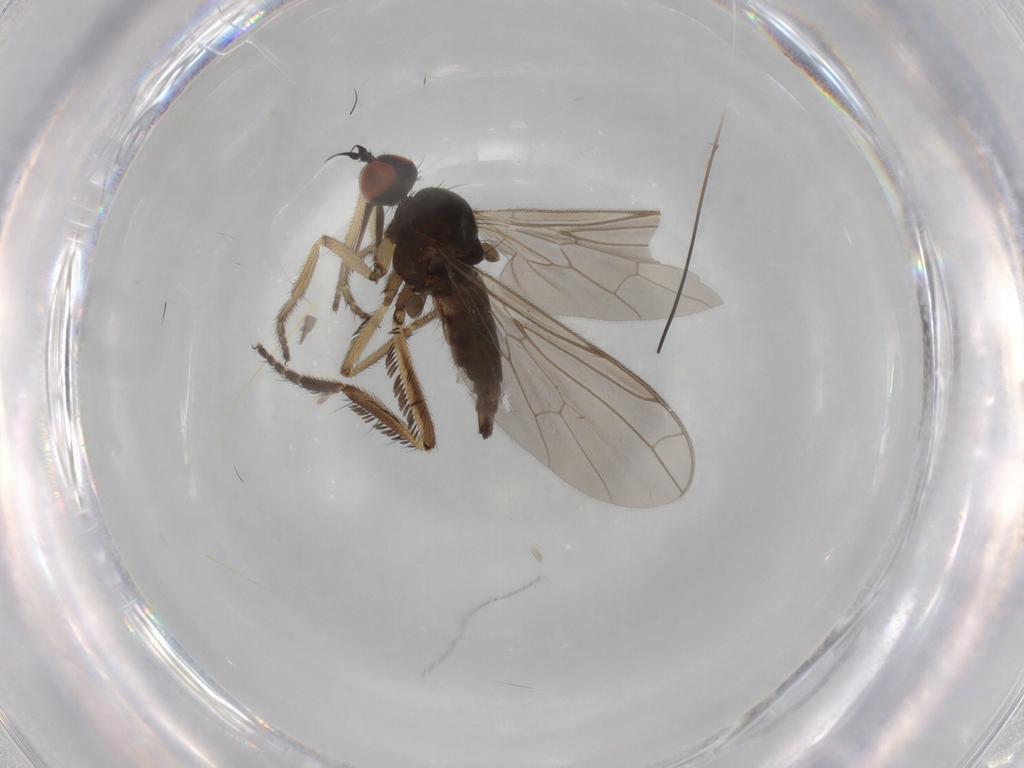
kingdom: Animalia
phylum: Arthropoda
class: Insecta
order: Diptera
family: Empididae
